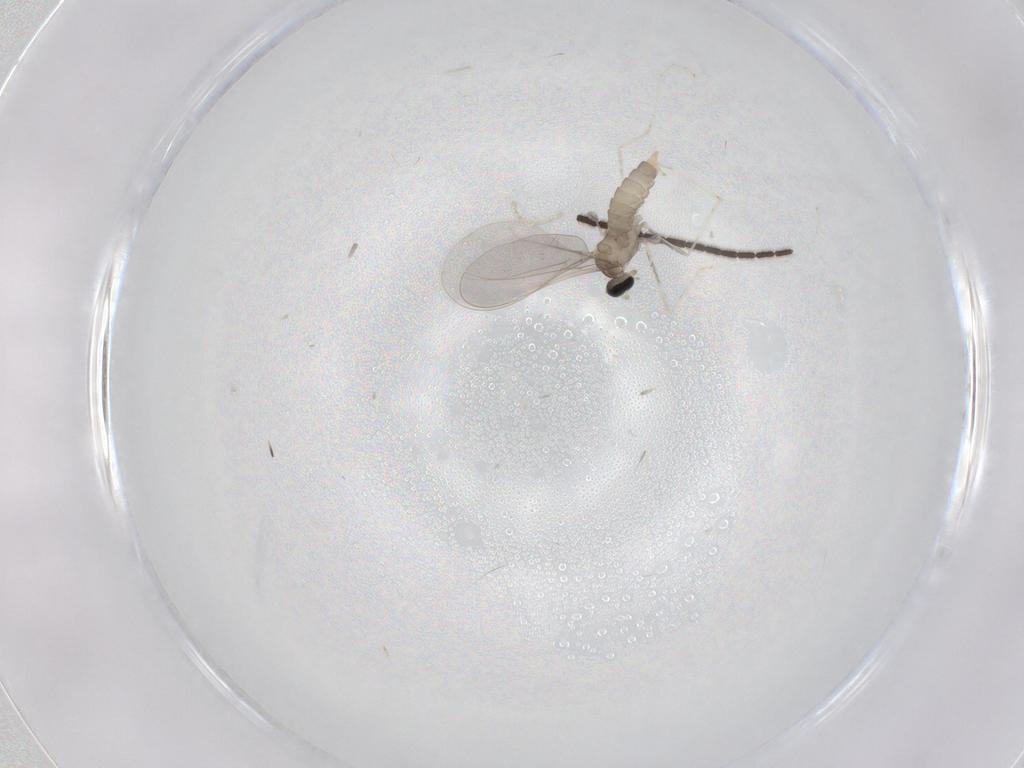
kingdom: Animalia
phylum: Arthropoda
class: Insecta
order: Diptera
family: Sciaridae
